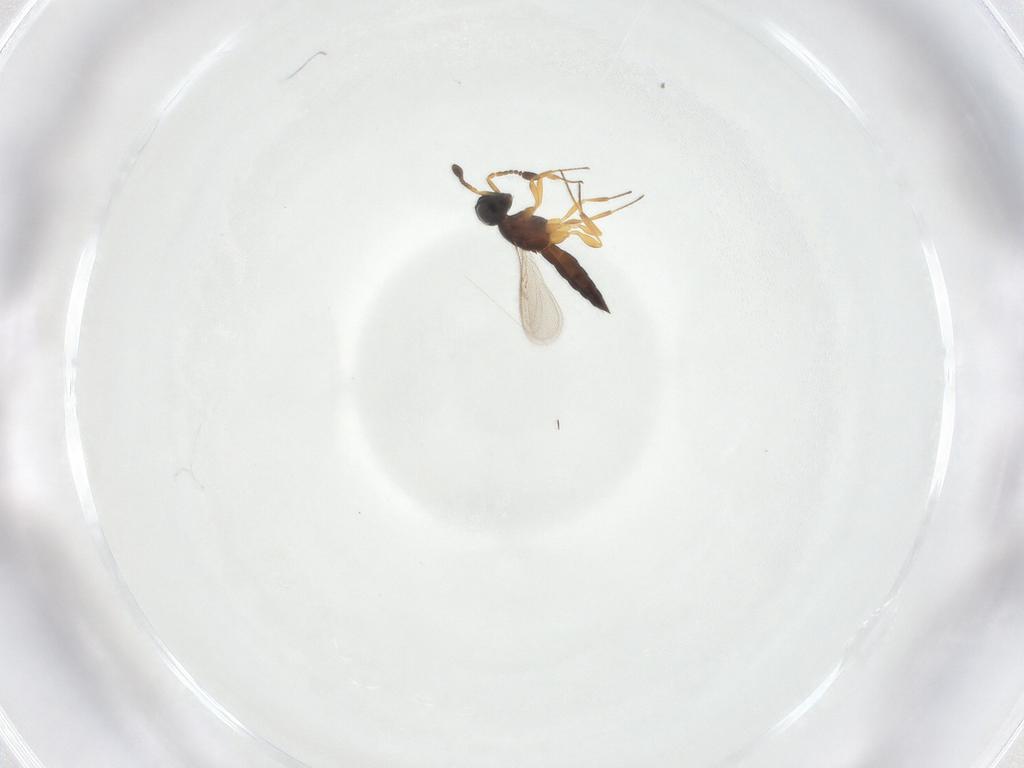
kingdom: Animalia
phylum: Arthropoda
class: Insecta
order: Hymenoptera
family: Scelionidae
